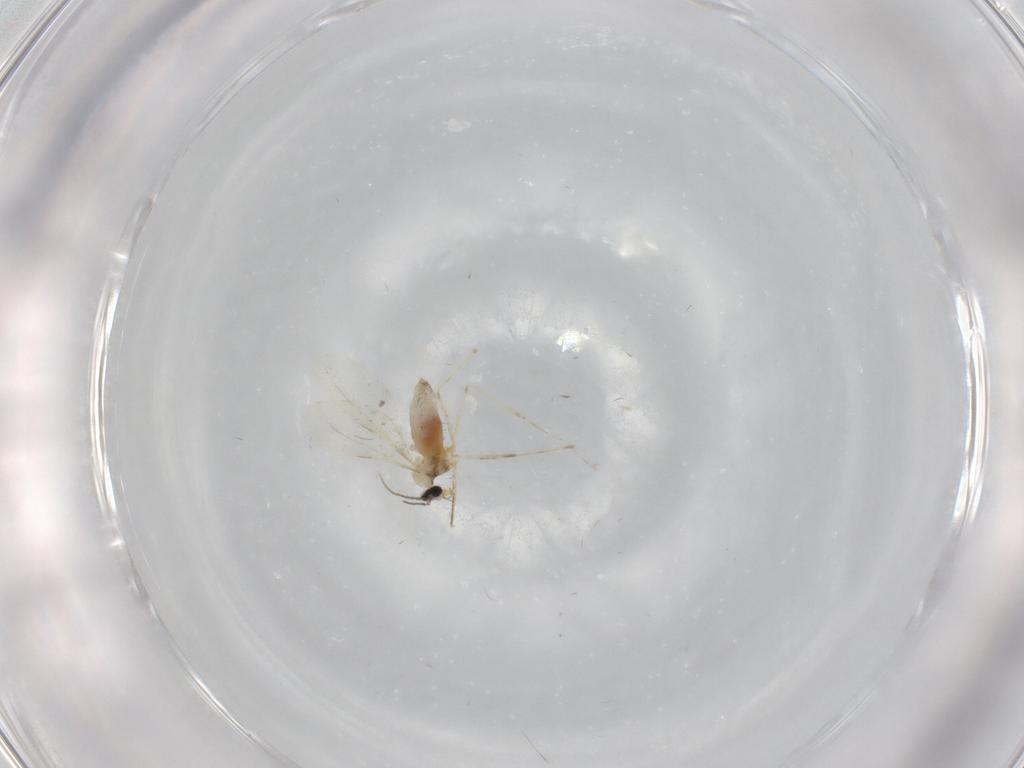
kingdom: Animalia
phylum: Arthropoda
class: Insecta
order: Diptera
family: Cecidomyiidae
